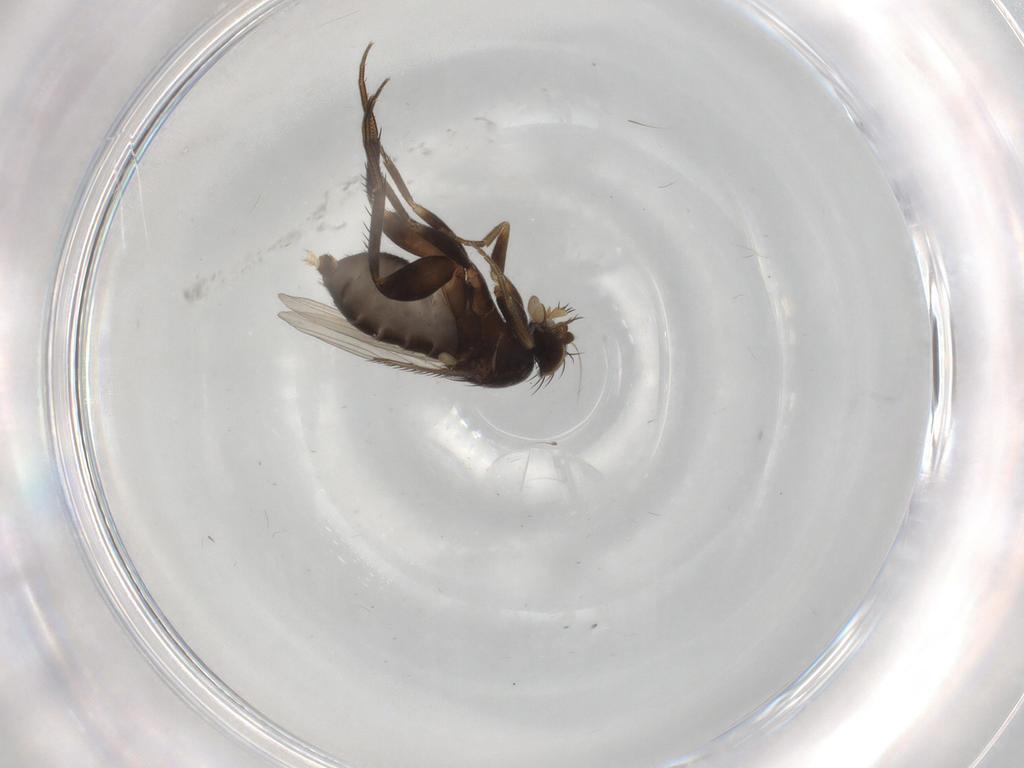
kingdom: Animalia
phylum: Arthropoda
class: Insecta
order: Diptera
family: Phoridae
